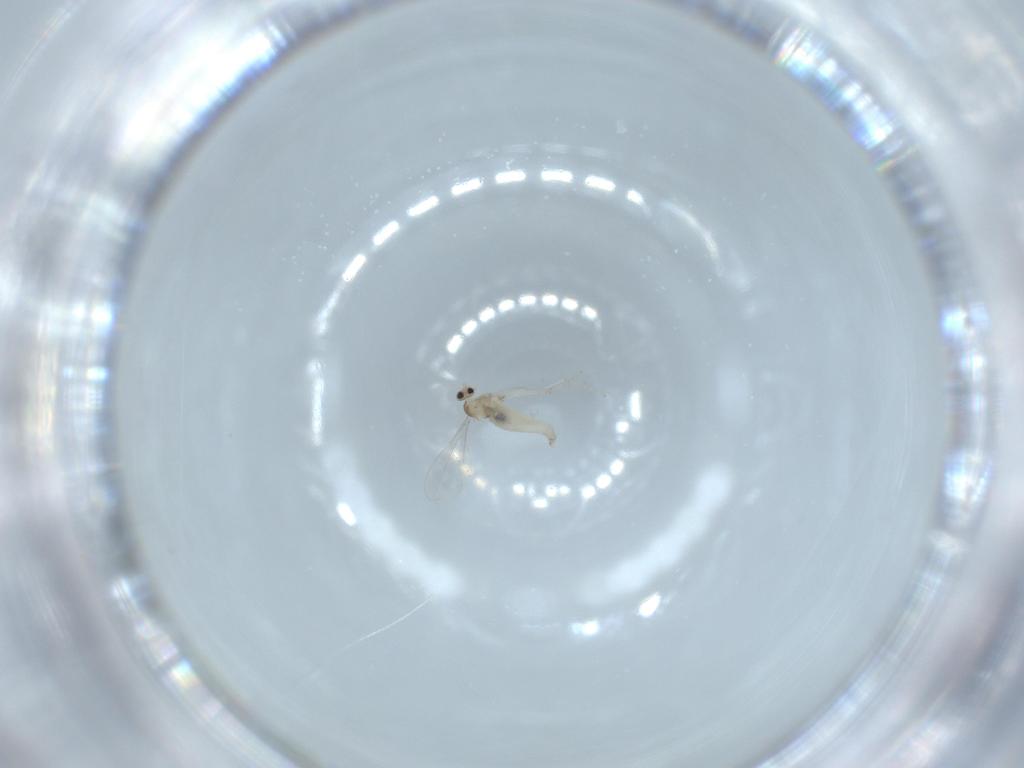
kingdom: Animalia
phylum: Arthropoda
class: Insecta
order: Diptera
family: Cecidomyiidae
